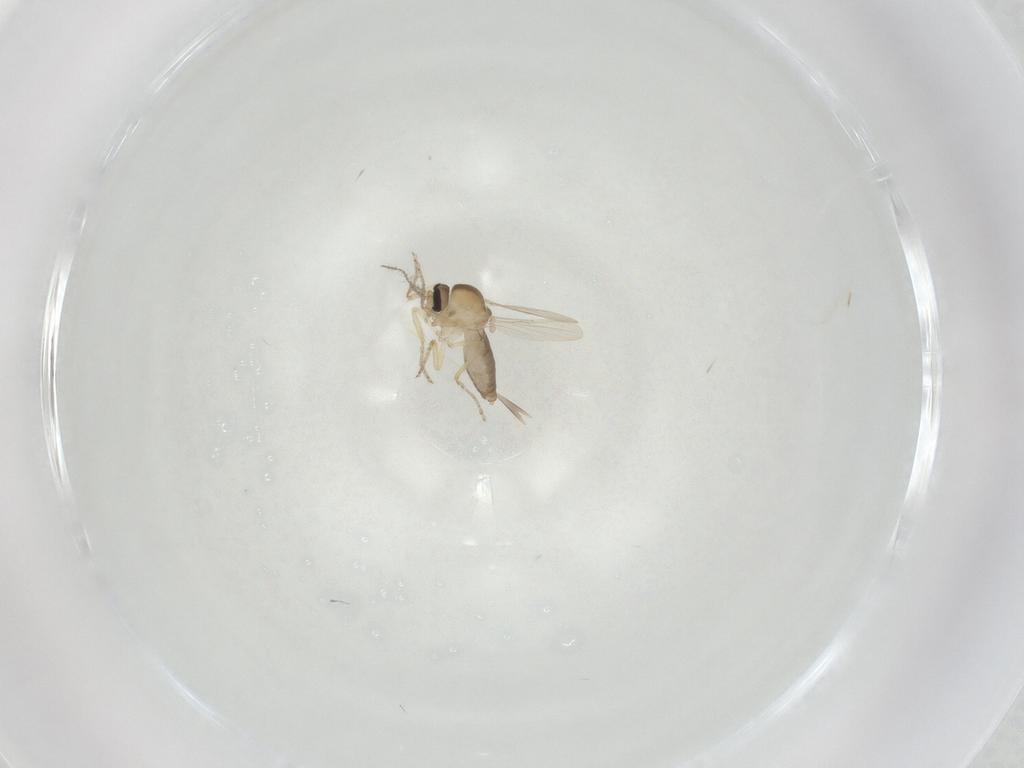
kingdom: Animalia
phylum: Arthropoda
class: Insecta
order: Diptera
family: Ceratopogonidae
